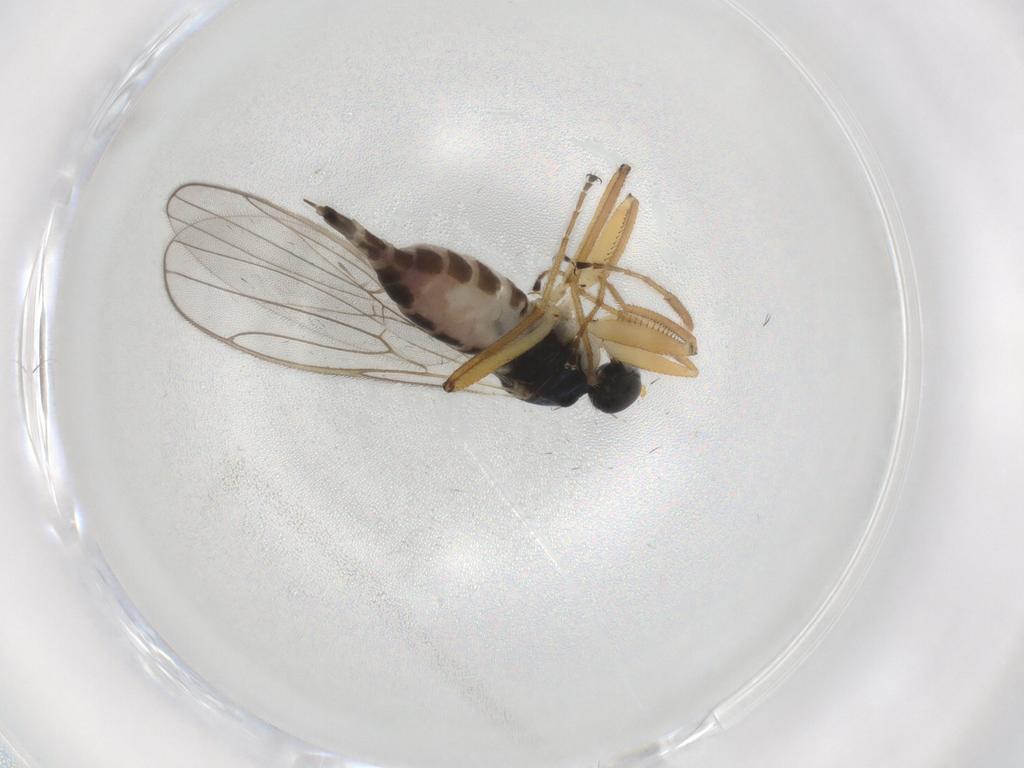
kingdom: Animalia
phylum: Arthropoda
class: Insecta
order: Diptera
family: Hybotidae
